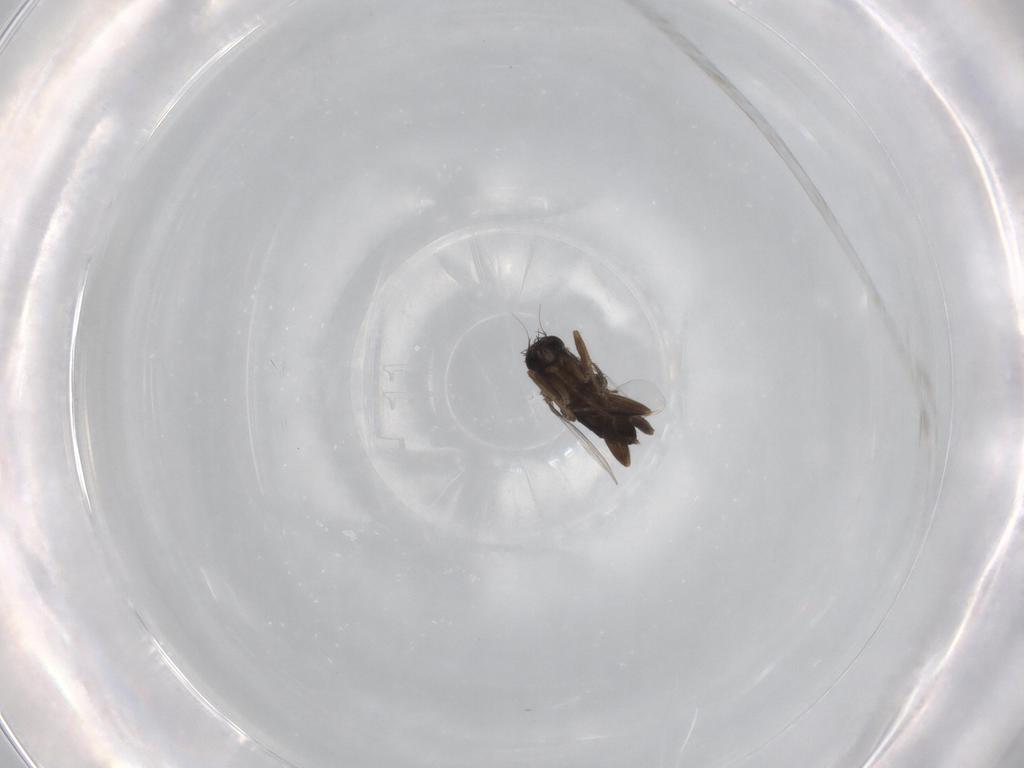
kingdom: Animalia
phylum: Arthropoda
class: Insecta
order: Diptera
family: Phoridae
